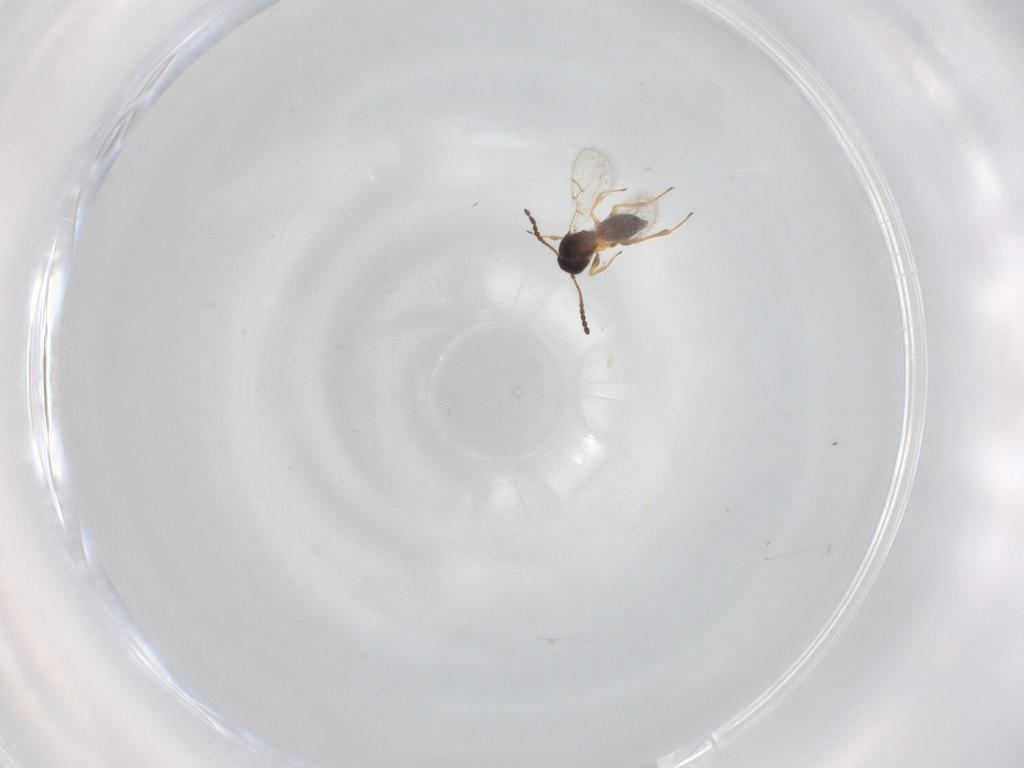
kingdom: Animalia
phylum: Arthropoda
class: Insecta
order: Hymenoptera
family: Figitidae
